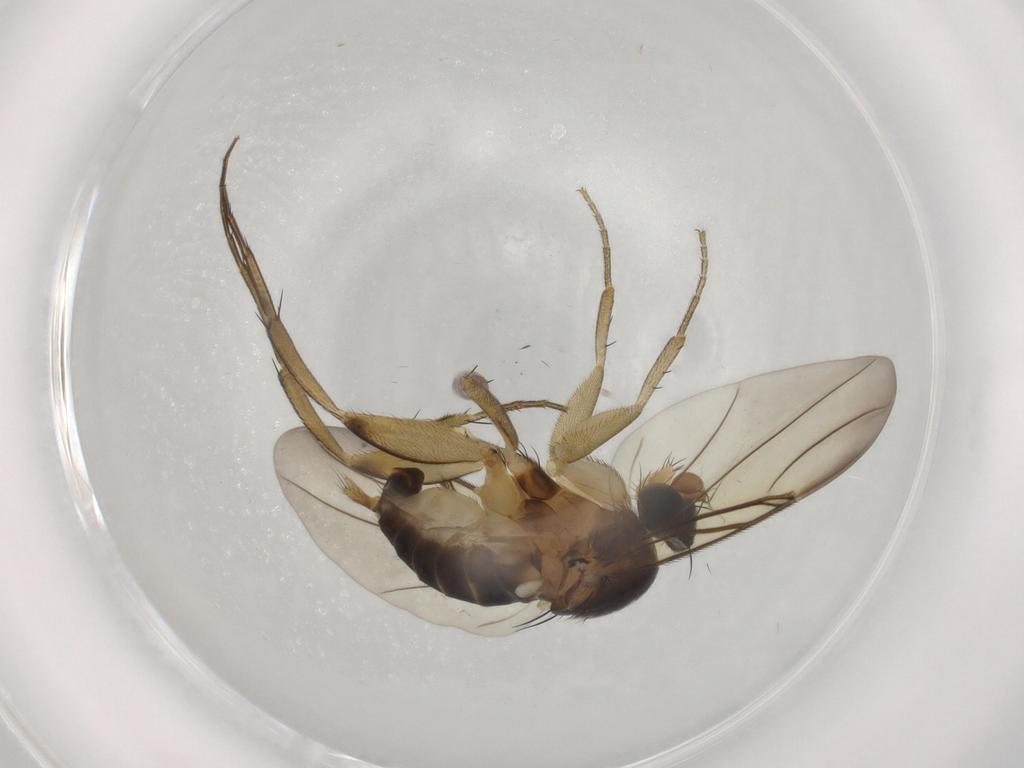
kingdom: Animalia
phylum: Arthropoda
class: Insecta
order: Diptera
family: Phoridae
